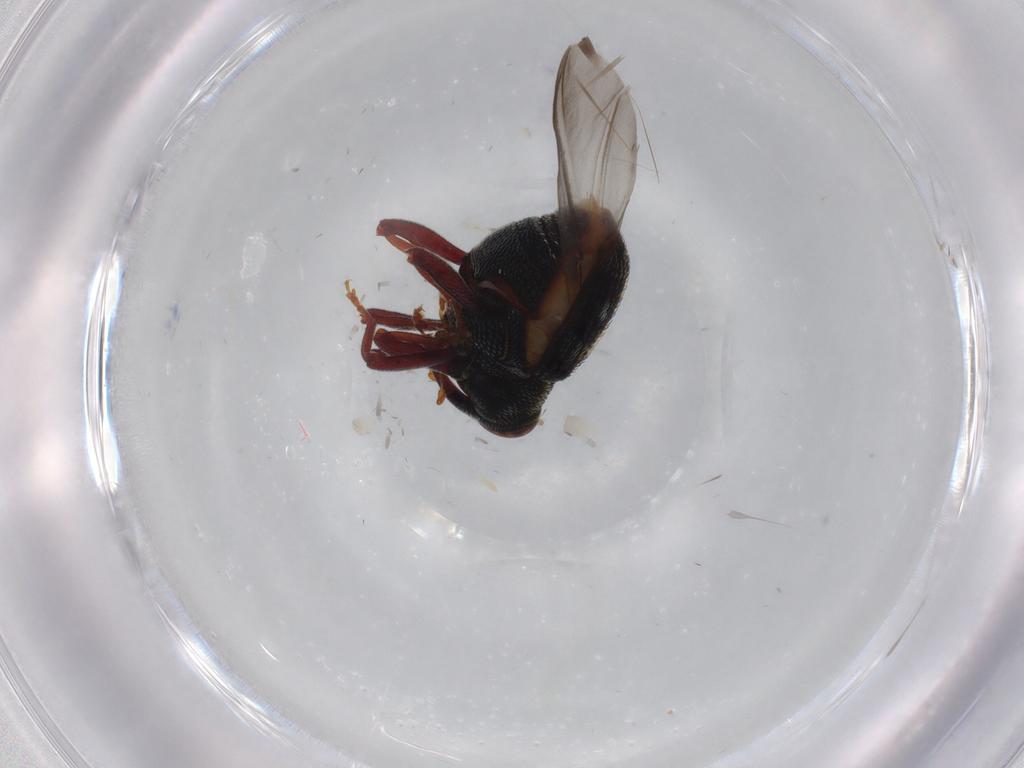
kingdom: Animalia
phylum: Arthropoda
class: Insecta
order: Coleoptera
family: Curculionidae
